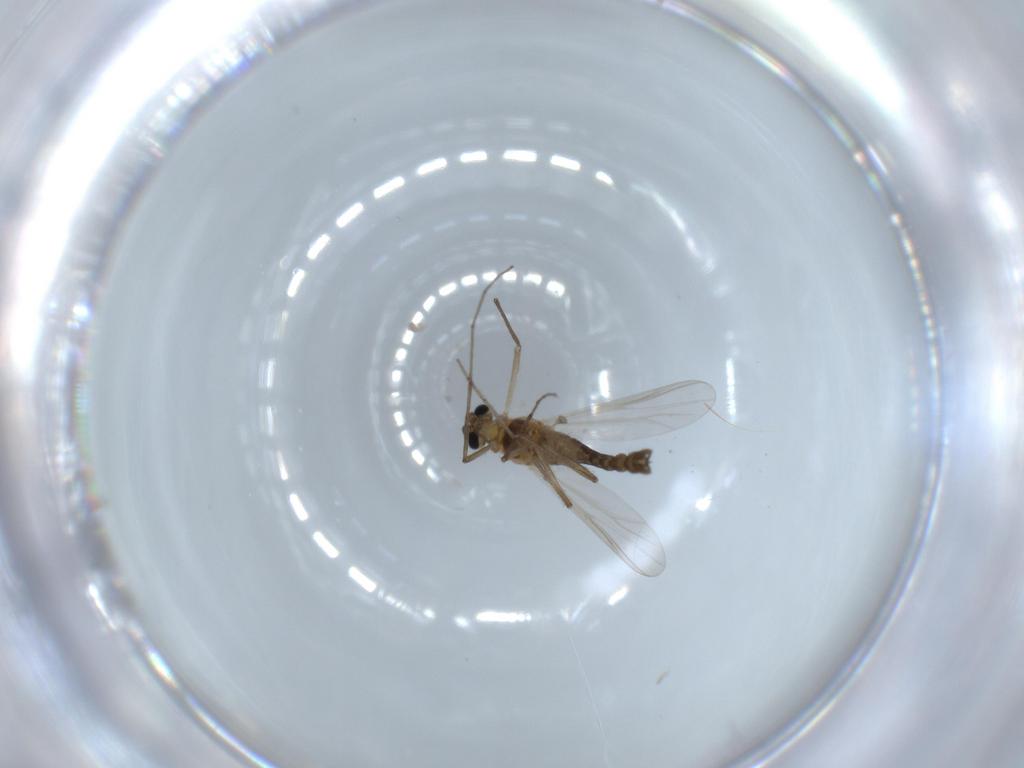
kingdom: Animalia
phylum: Arthropoda
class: Insecta
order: Diptera
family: Chironomidae
